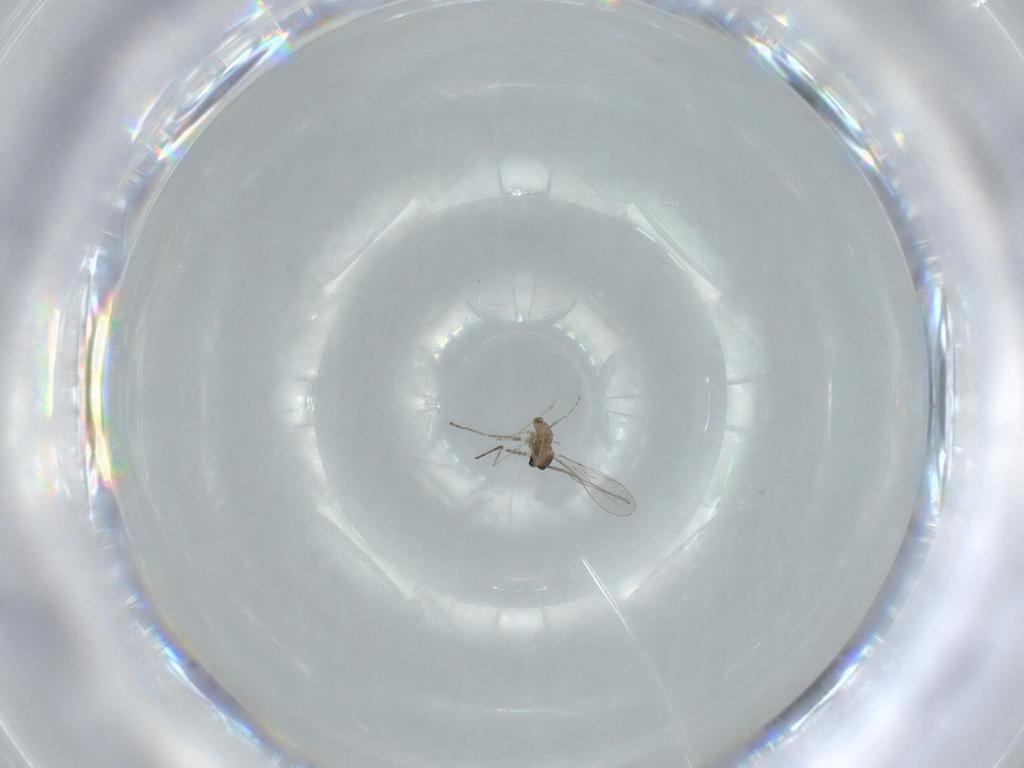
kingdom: Animalia
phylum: Arthropoda
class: Insecta
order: Diptera
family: Cecidomyiidae
